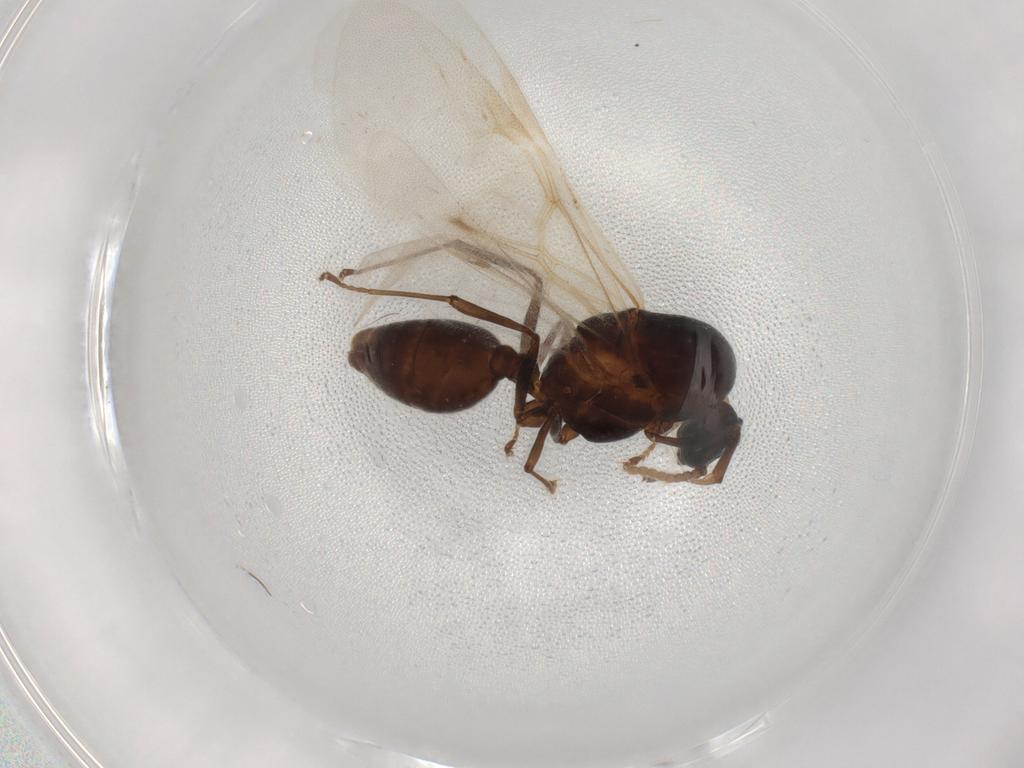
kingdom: Animalia
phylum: Arthropoda
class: Insecta
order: Hymenoptera
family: Formicidae
